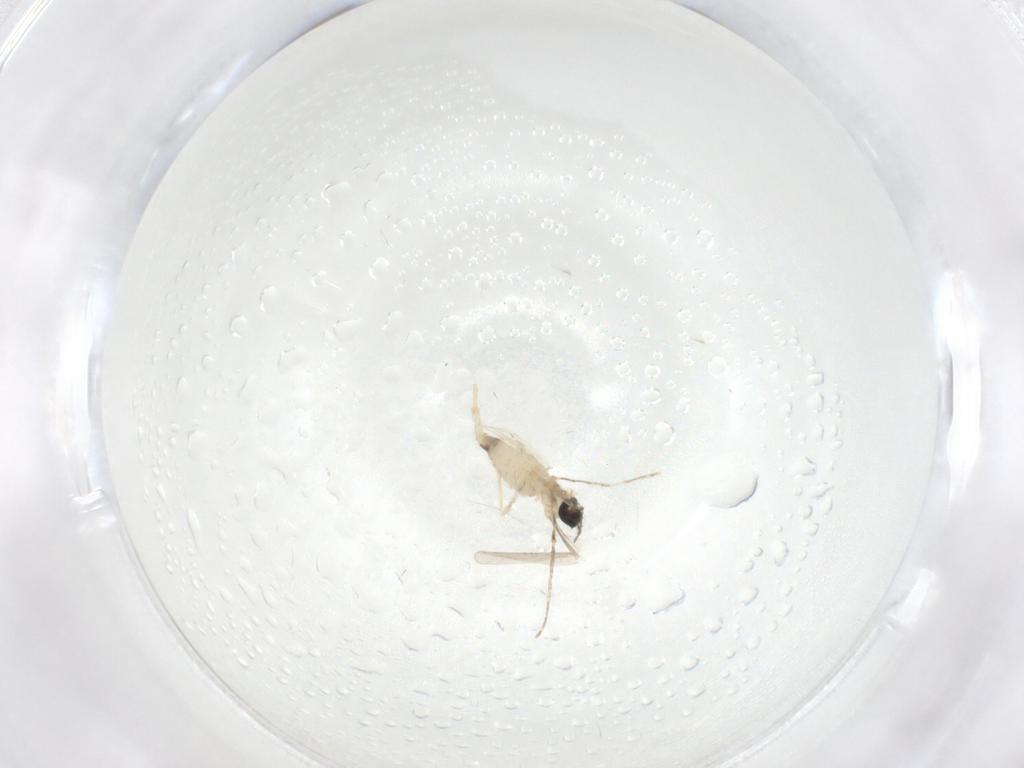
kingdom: Animalia
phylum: Arthropoda
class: Insecta
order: Diptera
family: Cecidomyiidae
